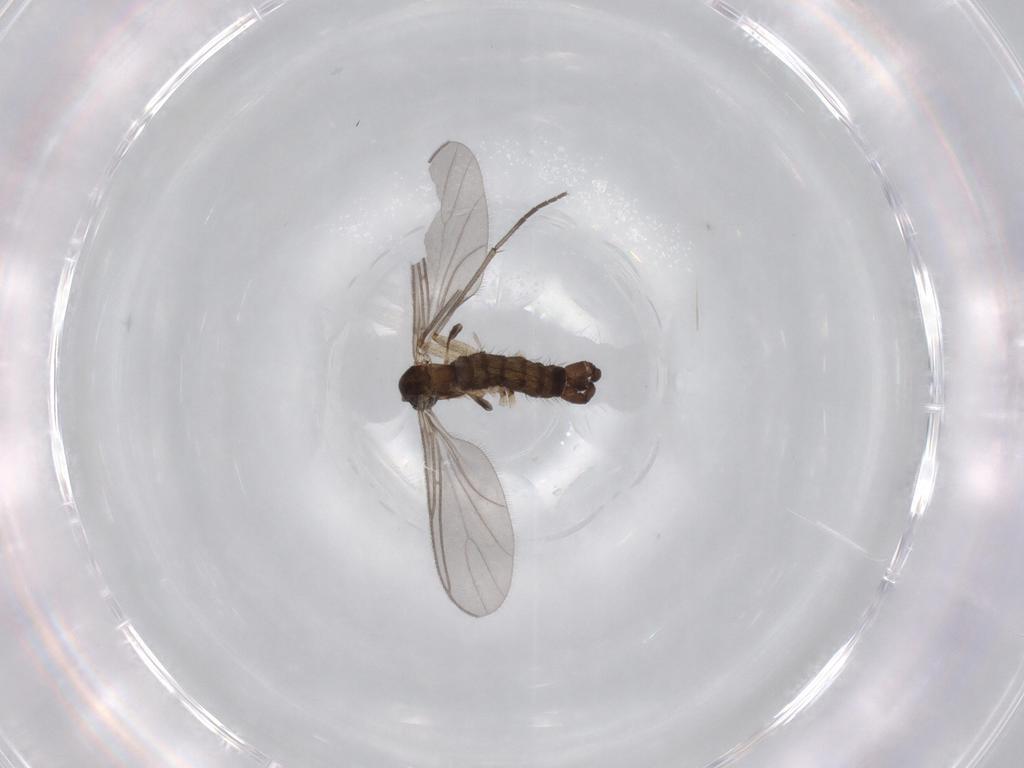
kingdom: Animalia
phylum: Arthropoda
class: Insecta
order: Diptera
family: Sciaridae
